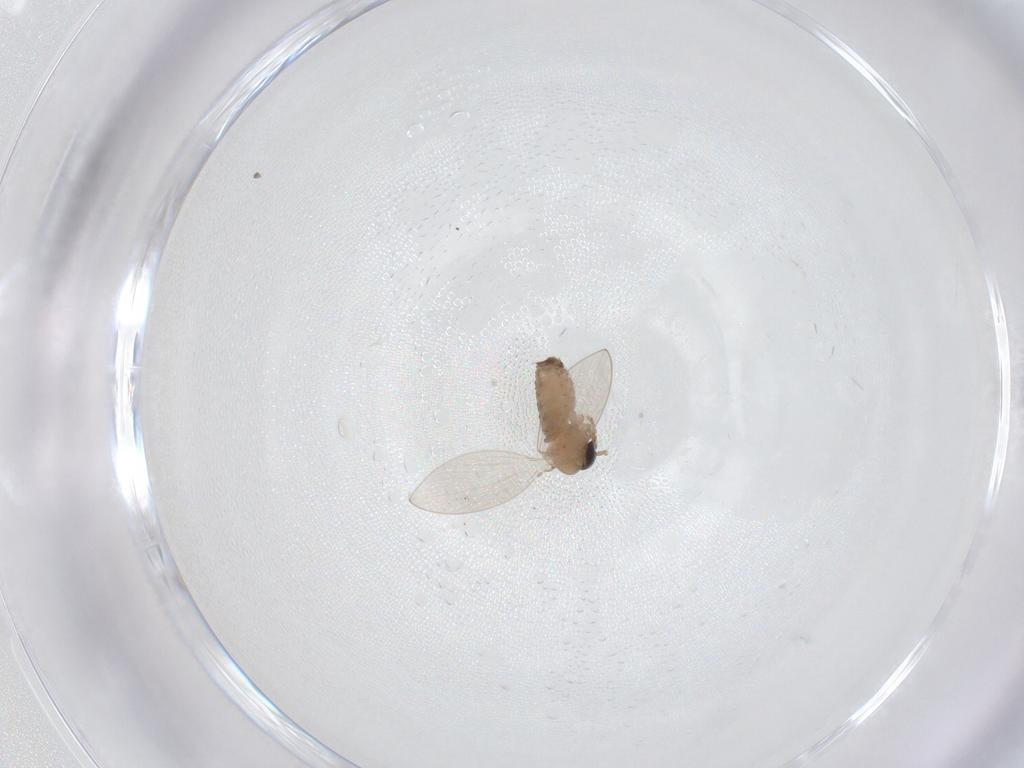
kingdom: Animalia
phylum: Arthropoda
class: Insecta
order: Diptera
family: Psychodidae
